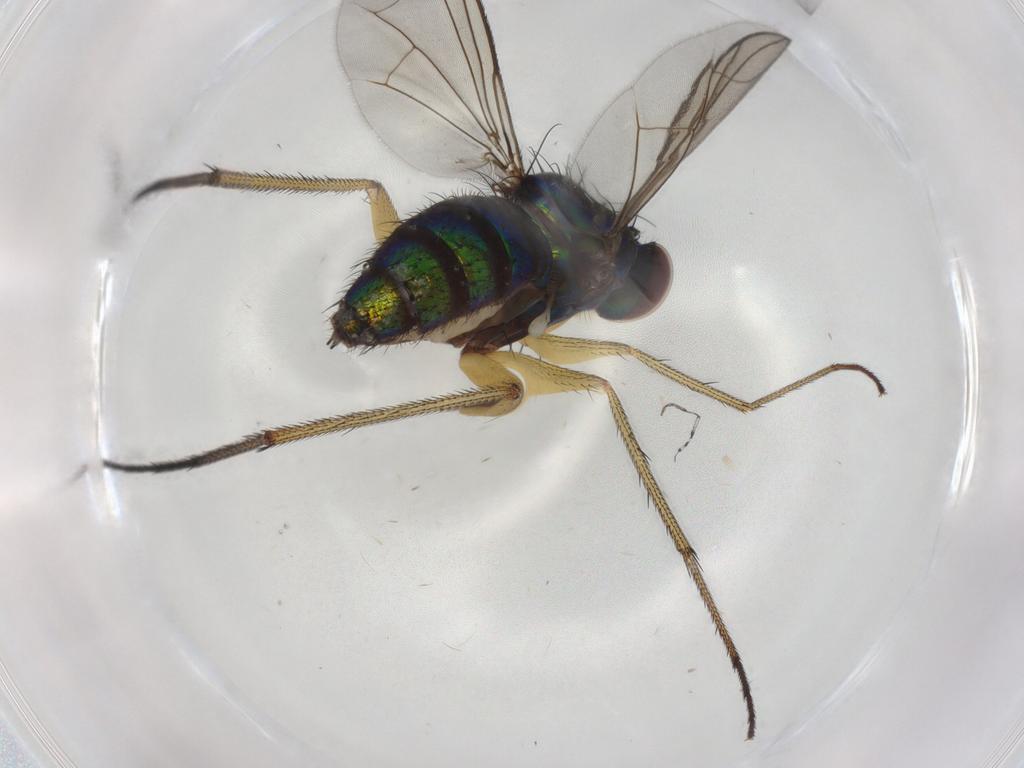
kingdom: Animalia
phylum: Arthropoda
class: Insecta
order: Diptera
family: Dolichopodidae
